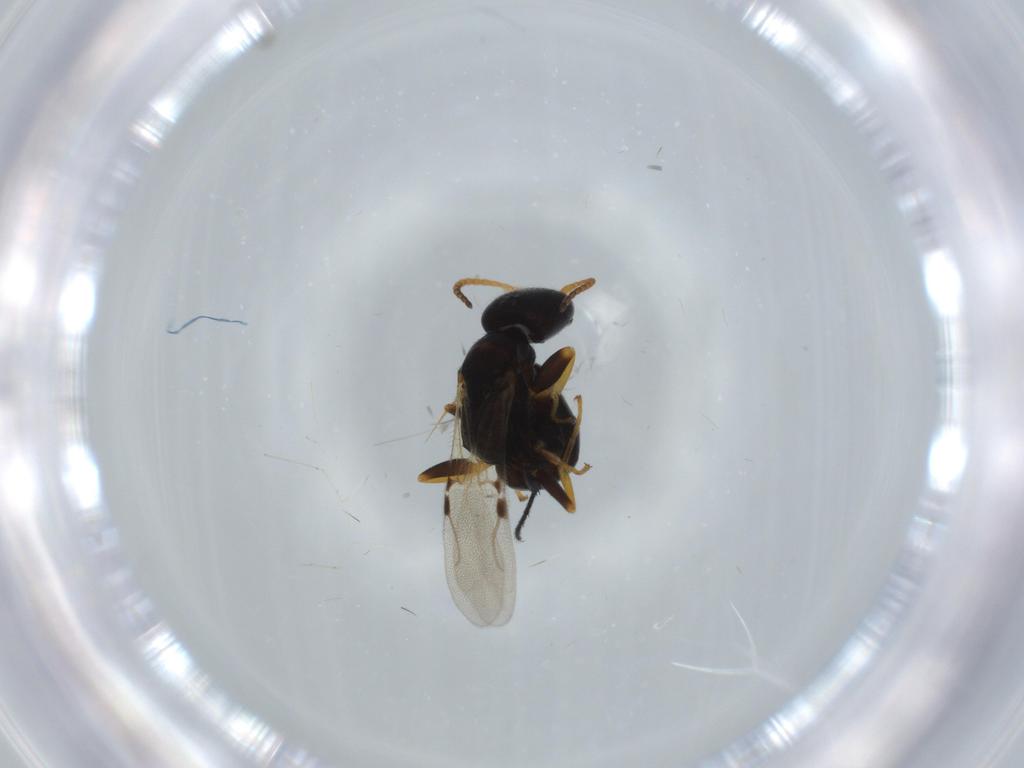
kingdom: Animalia
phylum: Arthropoda
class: Insecta
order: Hymenoptera
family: Bethylidae
